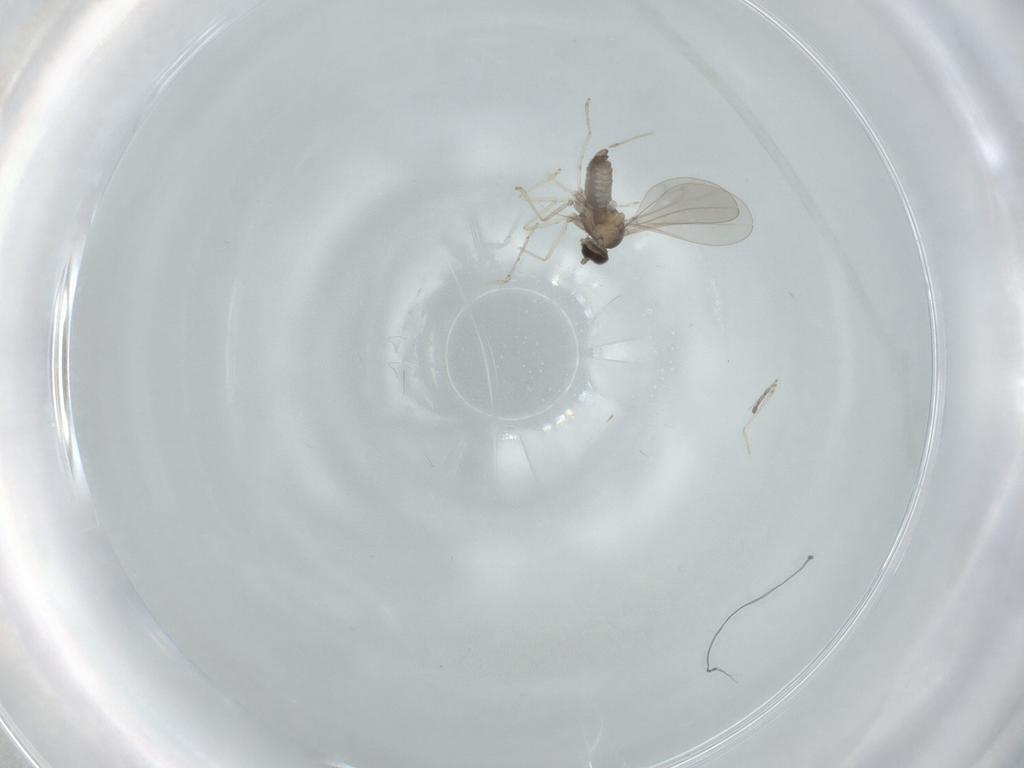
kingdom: Animalia
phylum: Arthropoda
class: Insecta
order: Diptera
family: Cecidomyiidae
